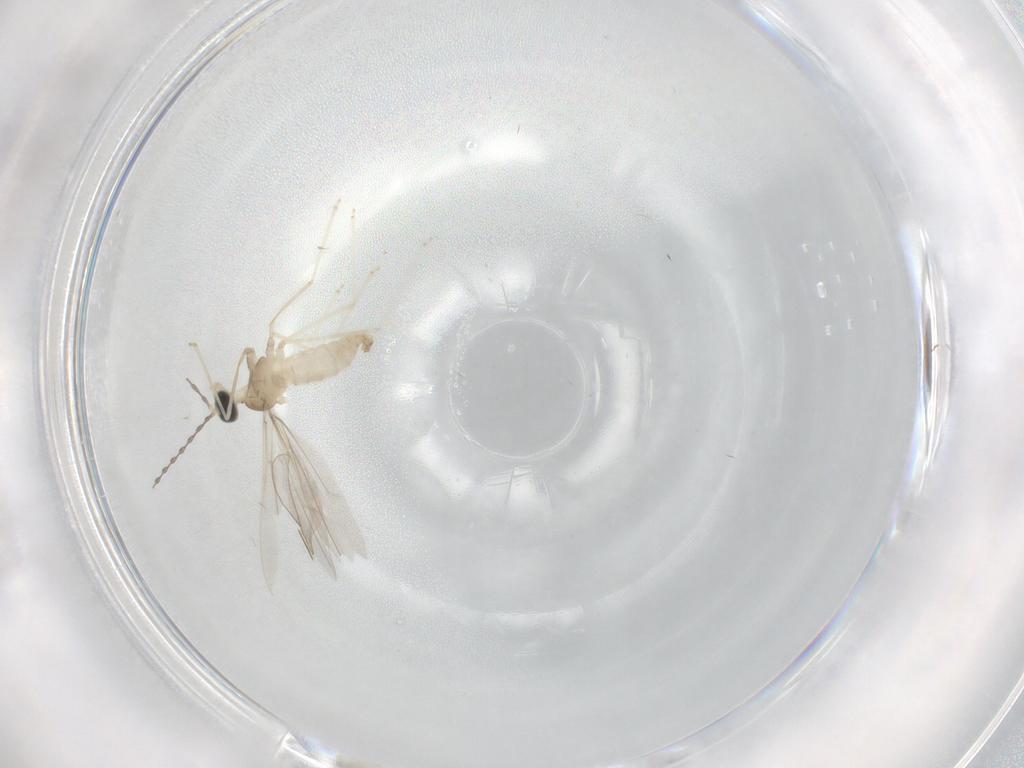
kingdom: Animalia
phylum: Arthropoda
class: Insecta
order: Diptera
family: Cecidomyiidae
